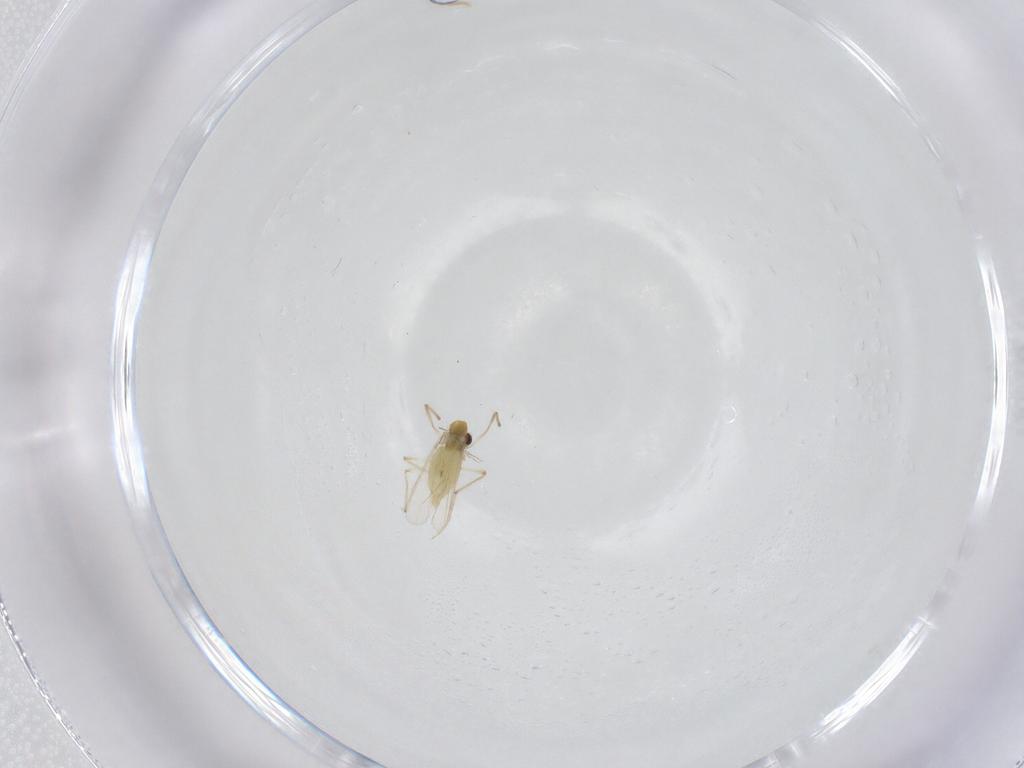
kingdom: Animalia
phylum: Arthropoda
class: Insecta
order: Diptera
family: Chironomidae
